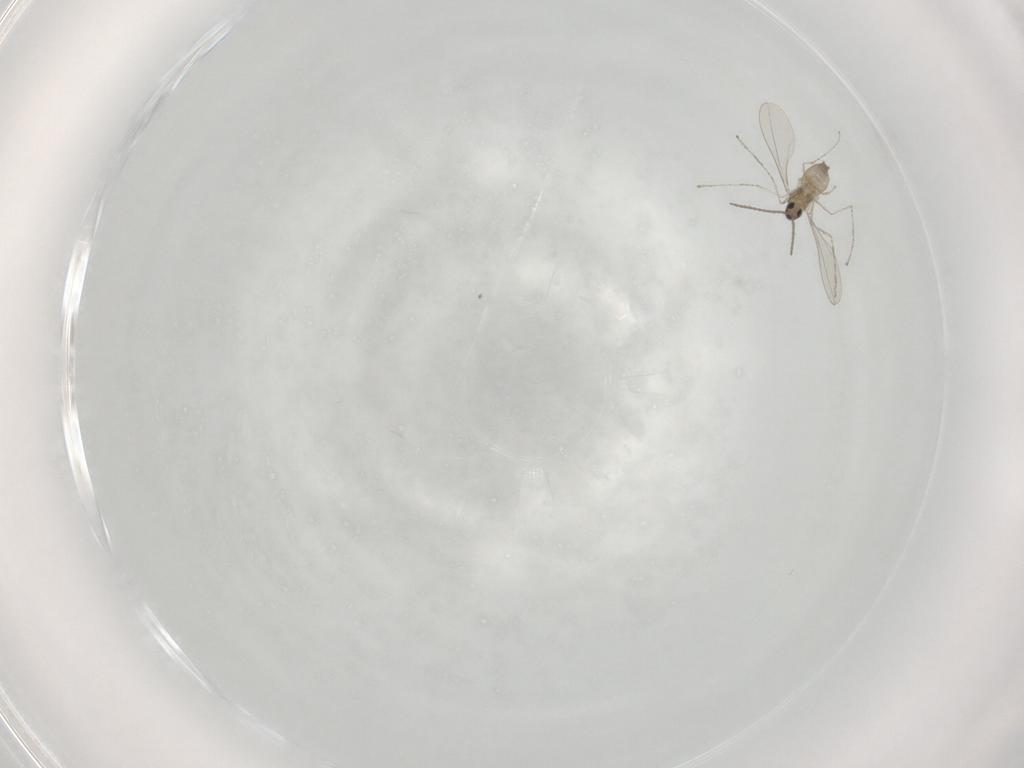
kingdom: Animalia
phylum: Arthropoda
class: Insecta
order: Diptera
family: Cecidomyiidae
